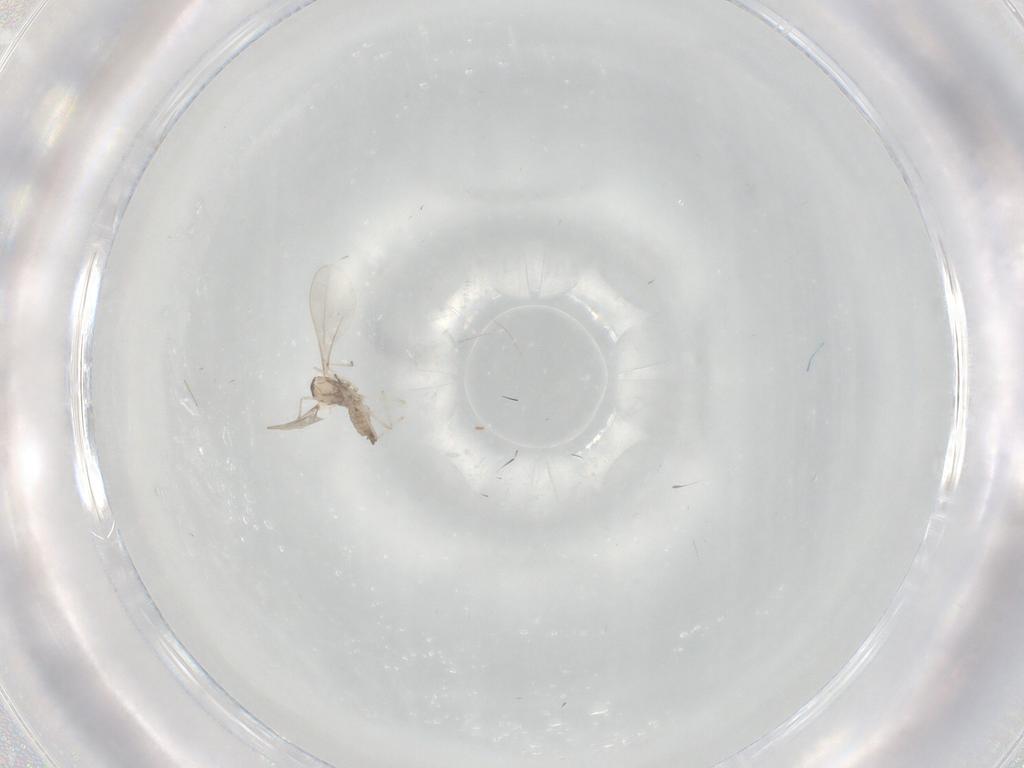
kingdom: Animalia
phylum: Arthropoda
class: Insecta
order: Diptera
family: Cecidomyiidae
